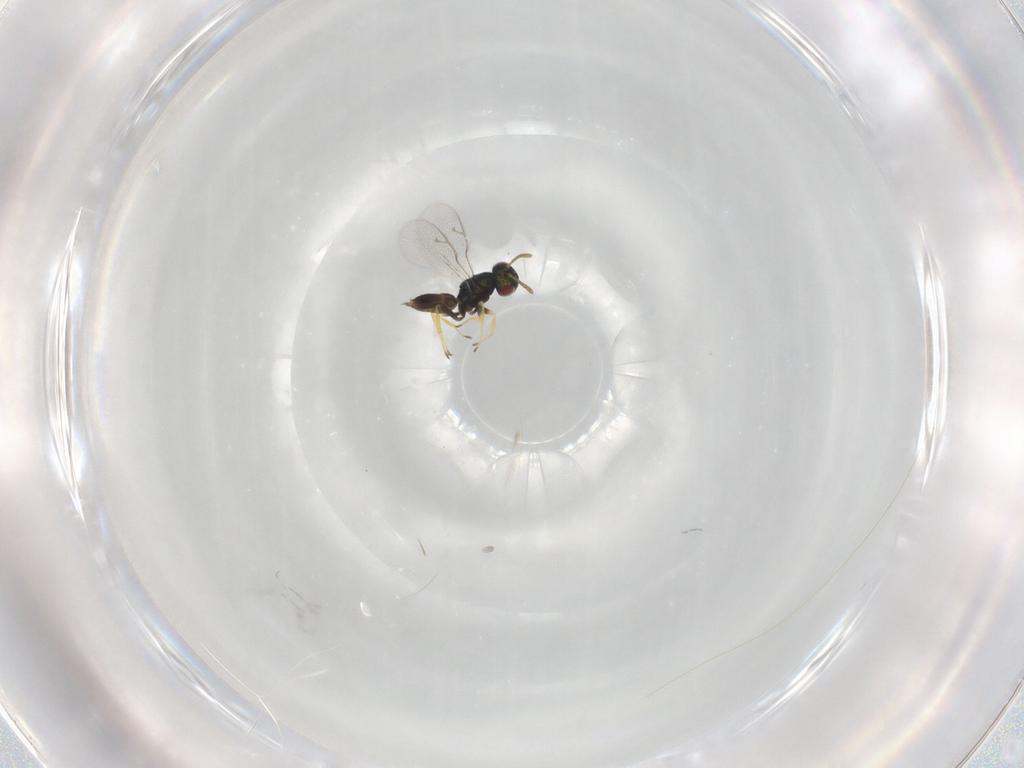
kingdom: Animalia
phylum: Arthropoda
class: Insecta
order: Hymenoptera
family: Pteromalidae
